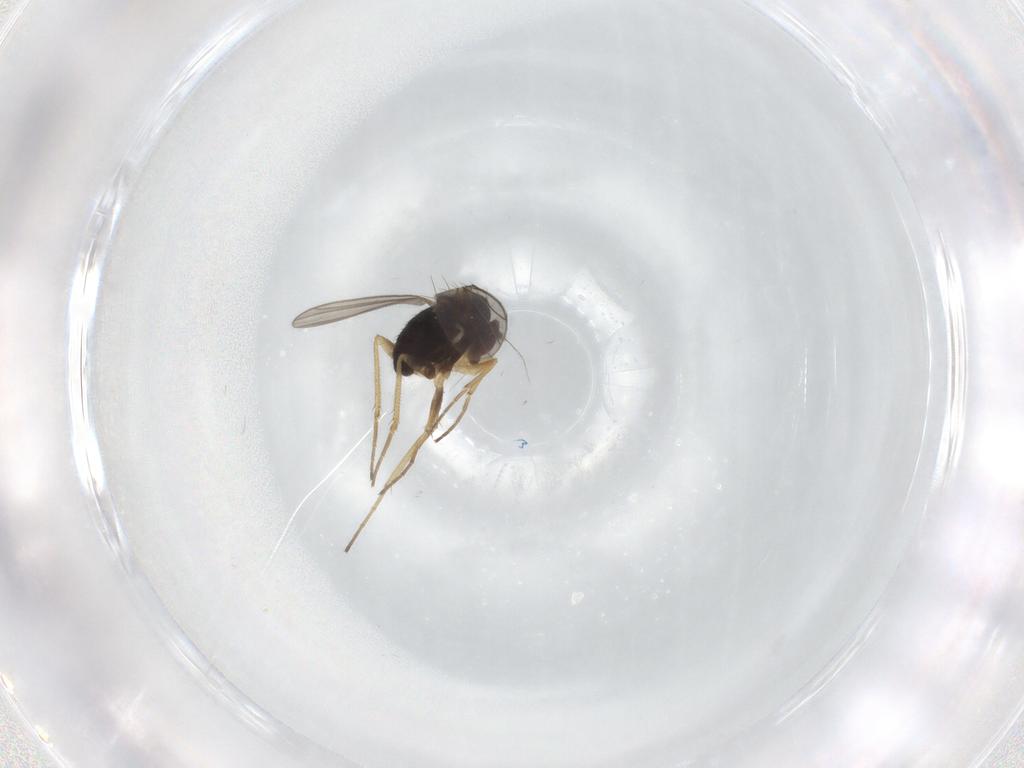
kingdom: Animalia
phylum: Arthropoda
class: Insecta
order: Diptera
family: Dolichopodidae
